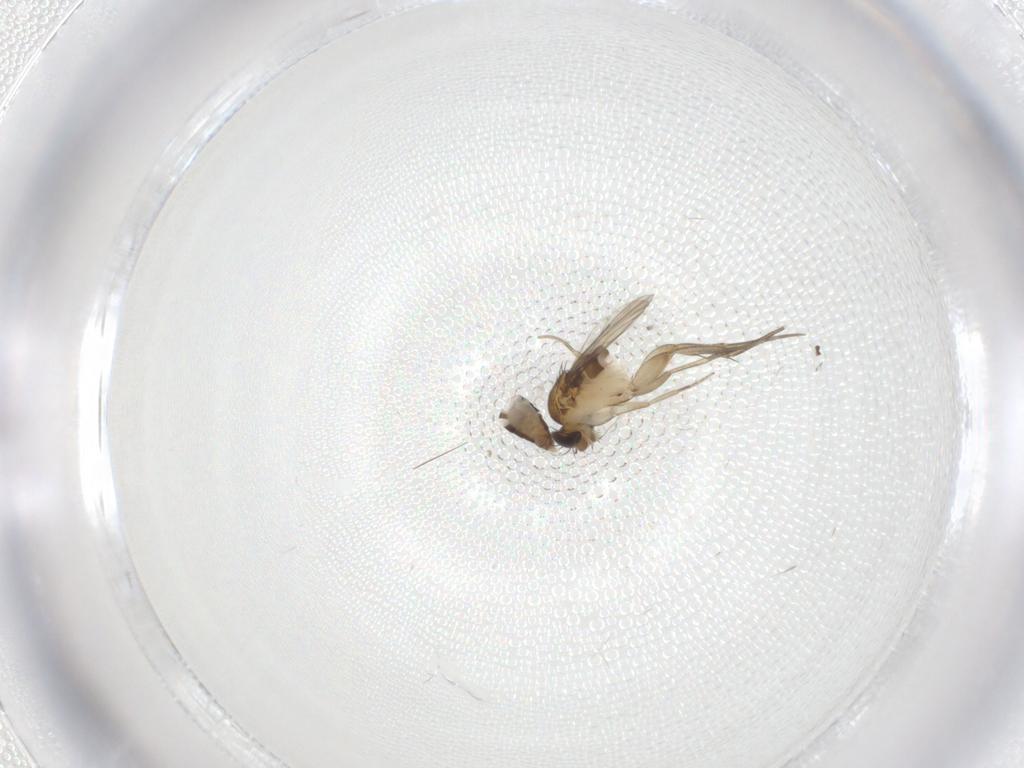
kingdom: Animalia
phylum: Arthropoda
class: Insecta
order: Diptera
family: Phoridae
